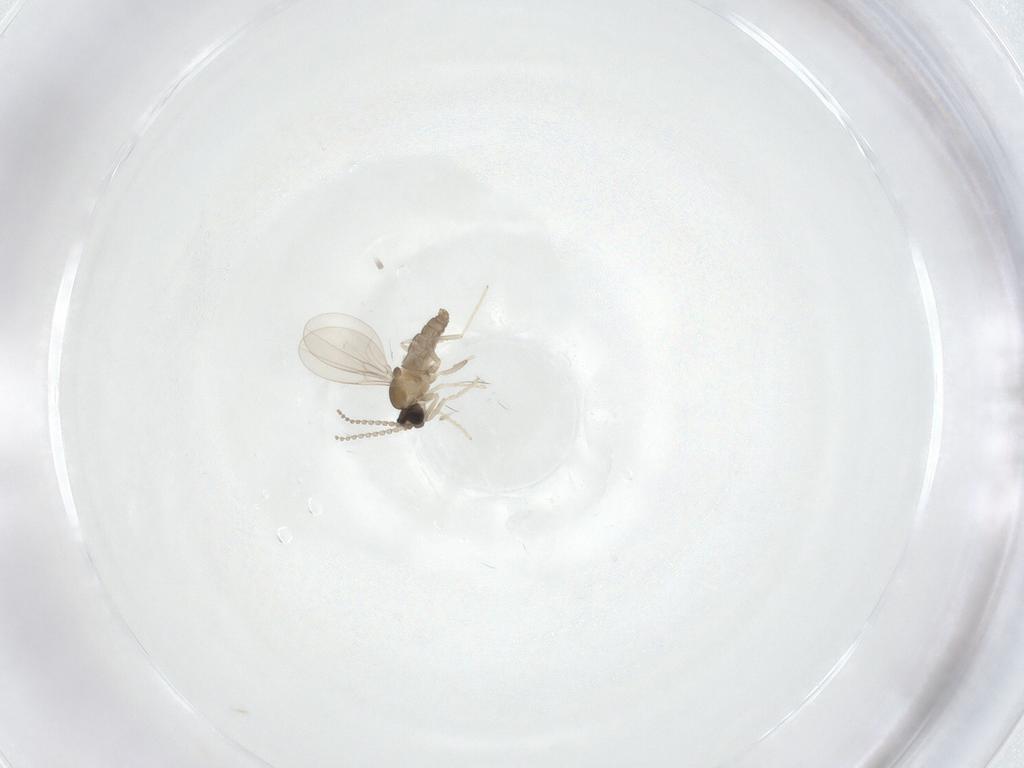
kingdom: Animalia
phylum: Arthropoda
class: Insecta
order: Diptera
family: Cecidomyiidae
